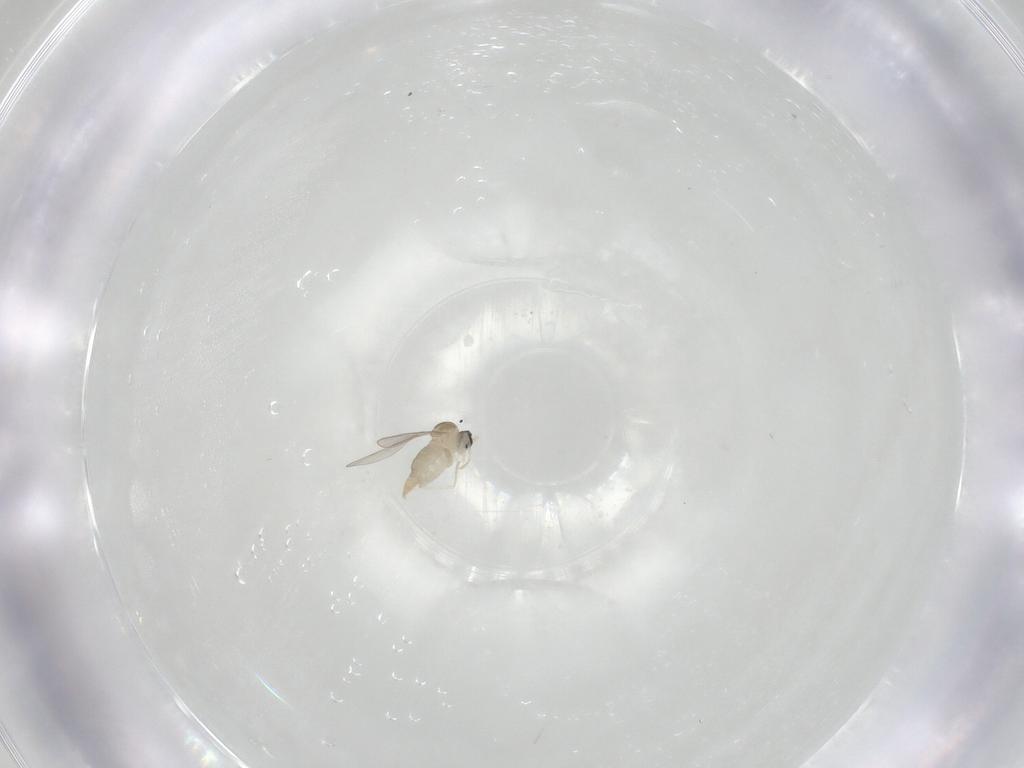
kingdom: Animalia
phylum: Arthropoda
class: Insecta
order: Diptera
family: Cecidomyiidae
